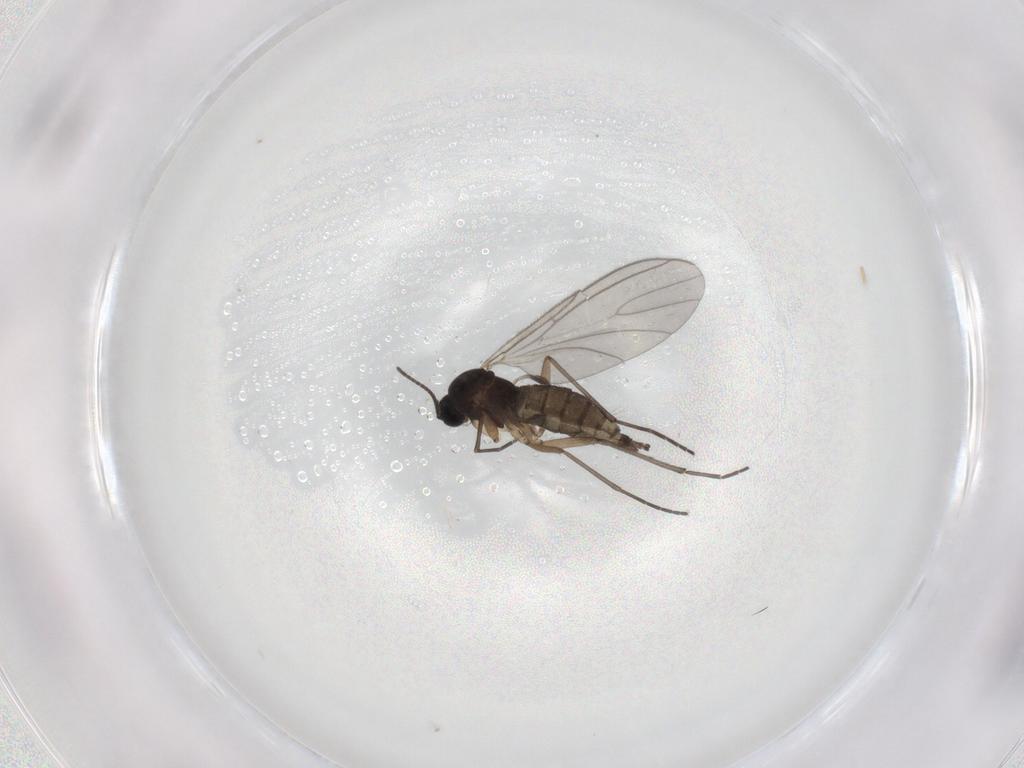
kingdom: Animalia
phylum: Arthropoda
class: Insecta
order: Diptera
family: Sciaridae
